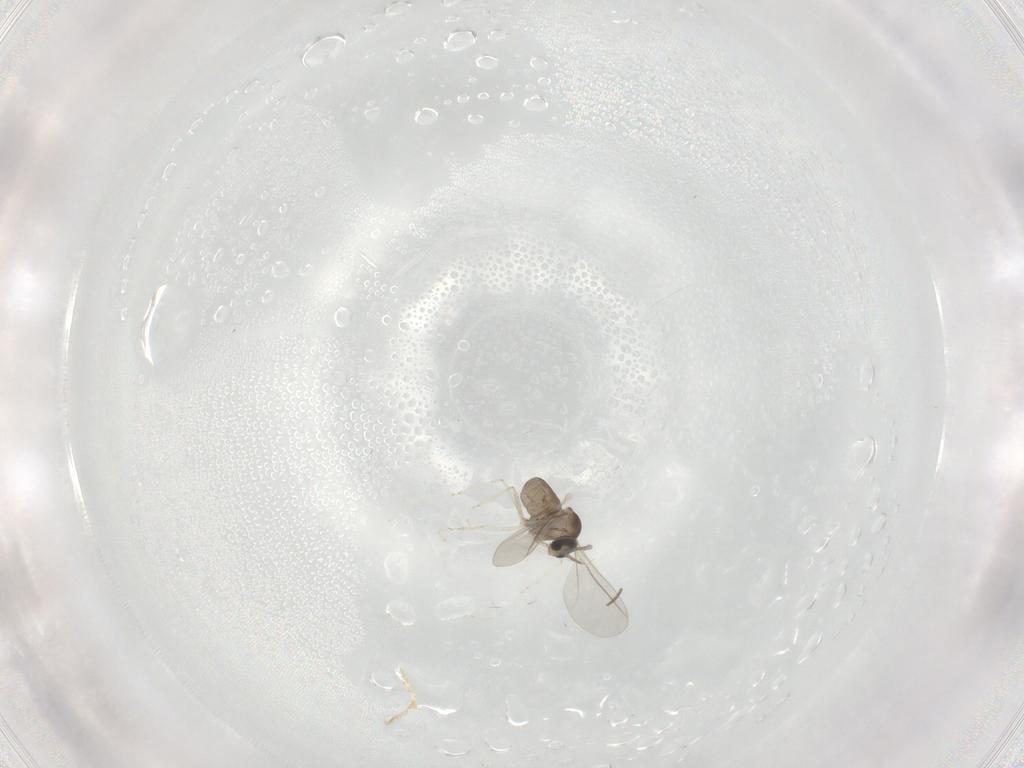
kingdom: Animalia
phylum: Arthropoda
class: Insecta
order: Diptera
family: Cecidomyiidae
